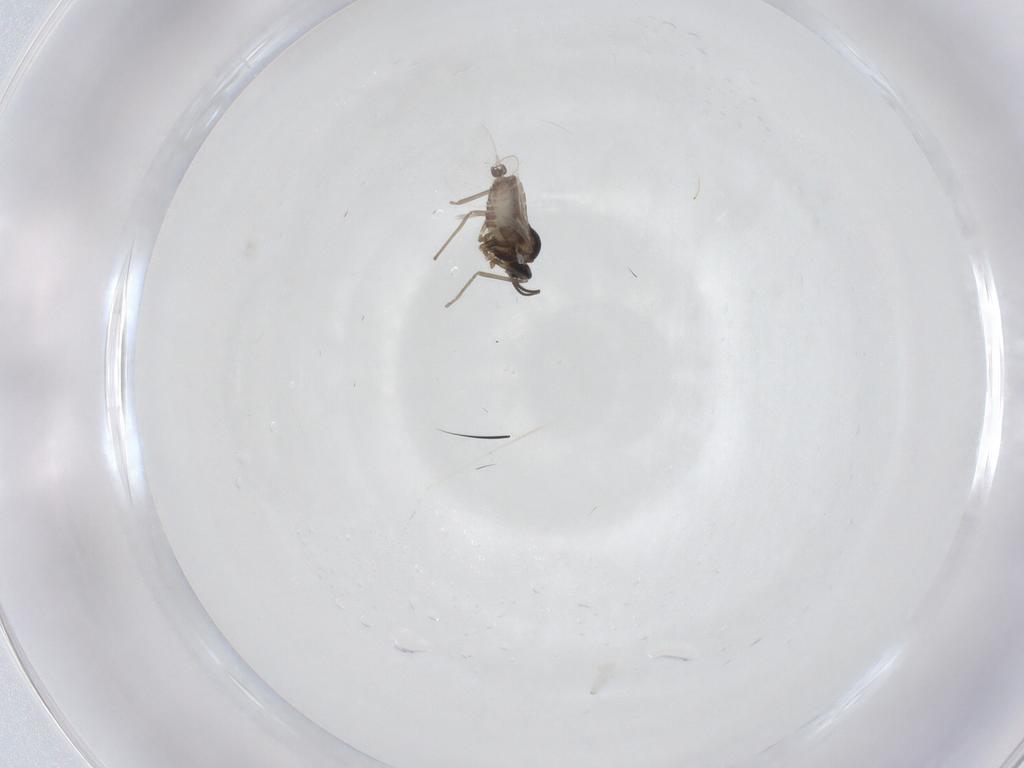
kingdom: Animalia
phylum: Arthropoda
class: Insecta
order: Diptera
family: Cecidomyiidae
